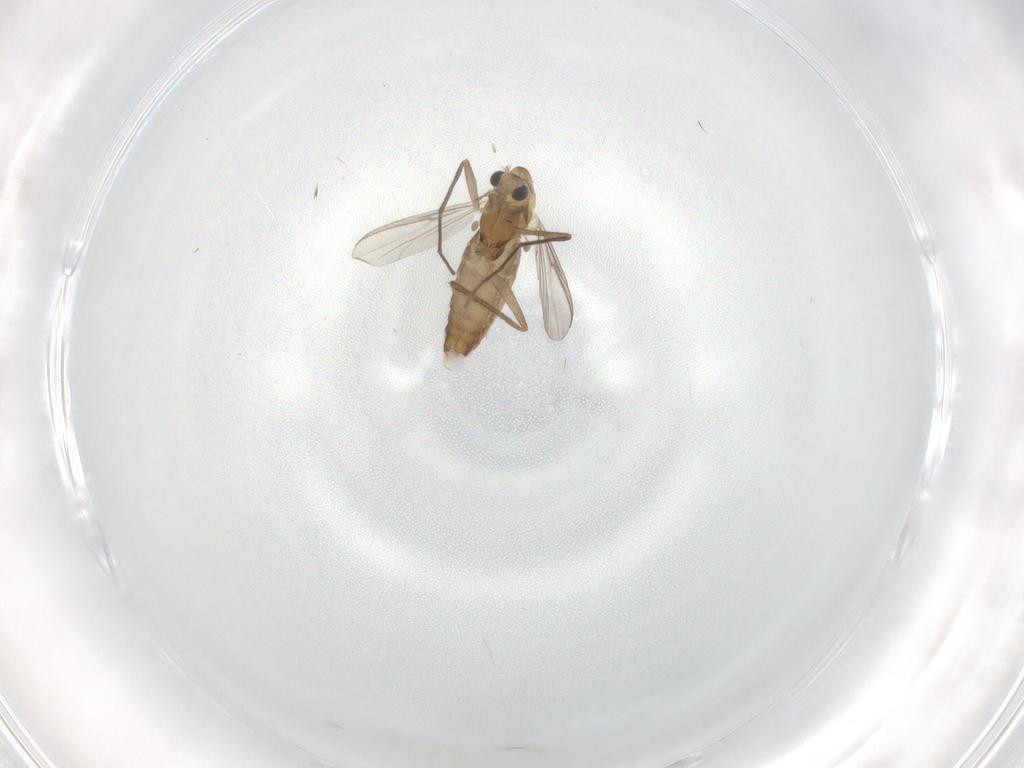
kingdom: Animalia
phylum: Arthropoda
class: Insecta
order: Diptera
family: Chironomidae
